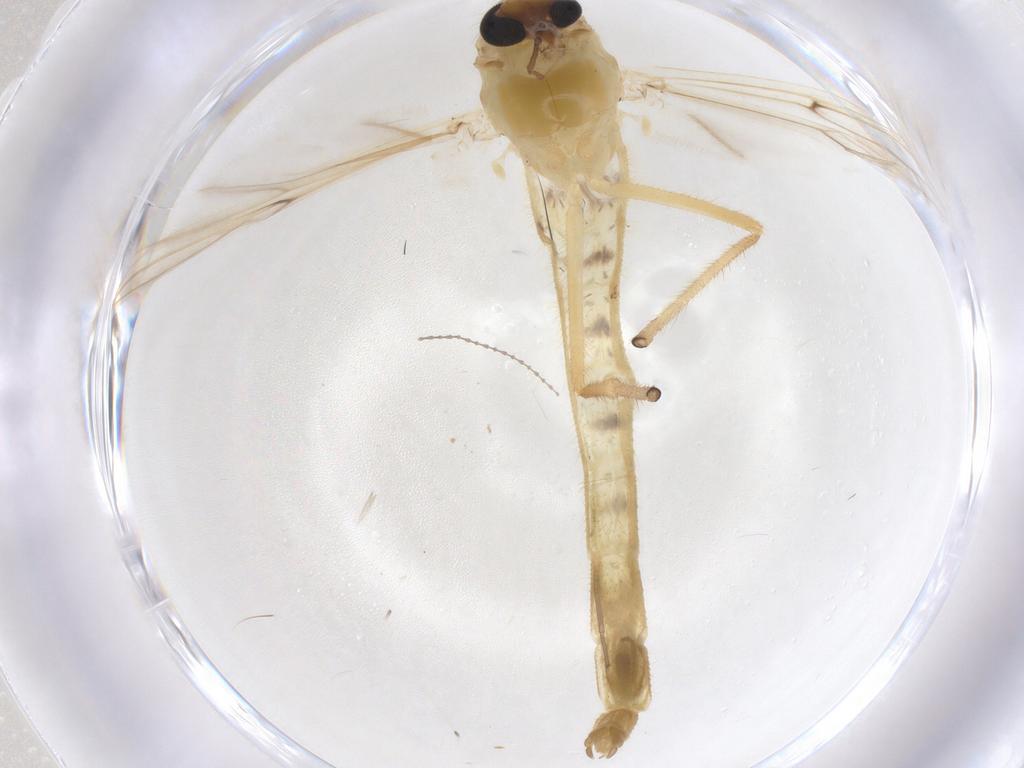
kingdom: Animalia
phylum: Arthropoda
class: Insecta
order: Diptera
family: Chironomidae
